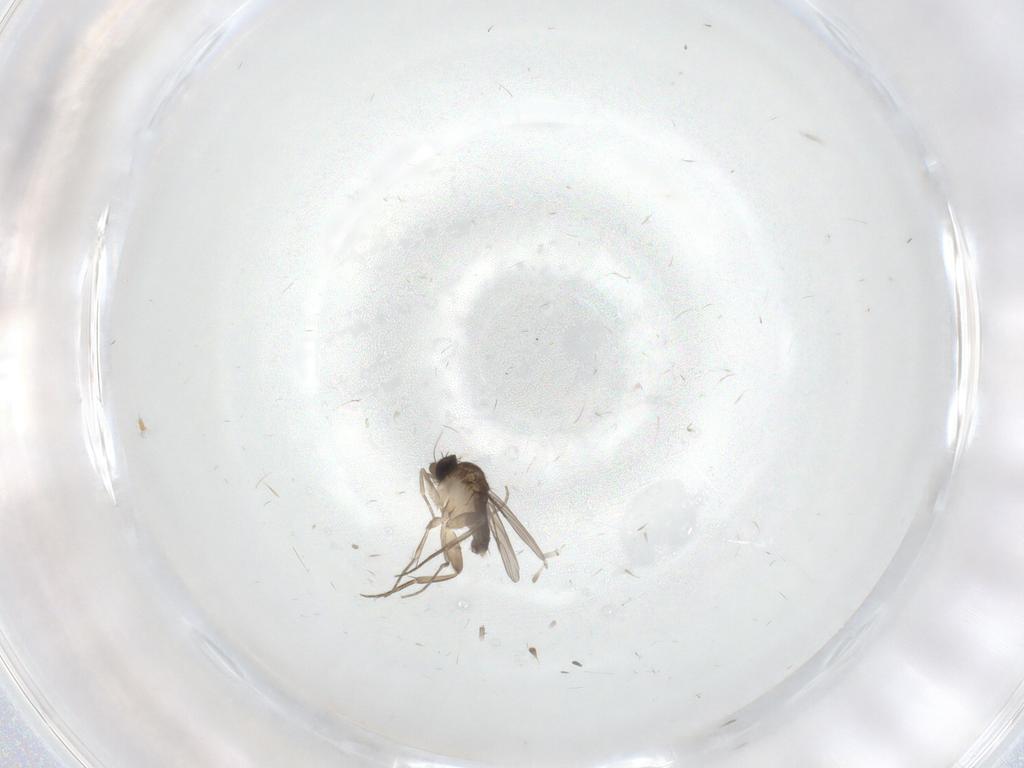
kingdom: Animalia
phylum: Arthropoda
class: Insecta
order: Diptera
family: Phoridae
